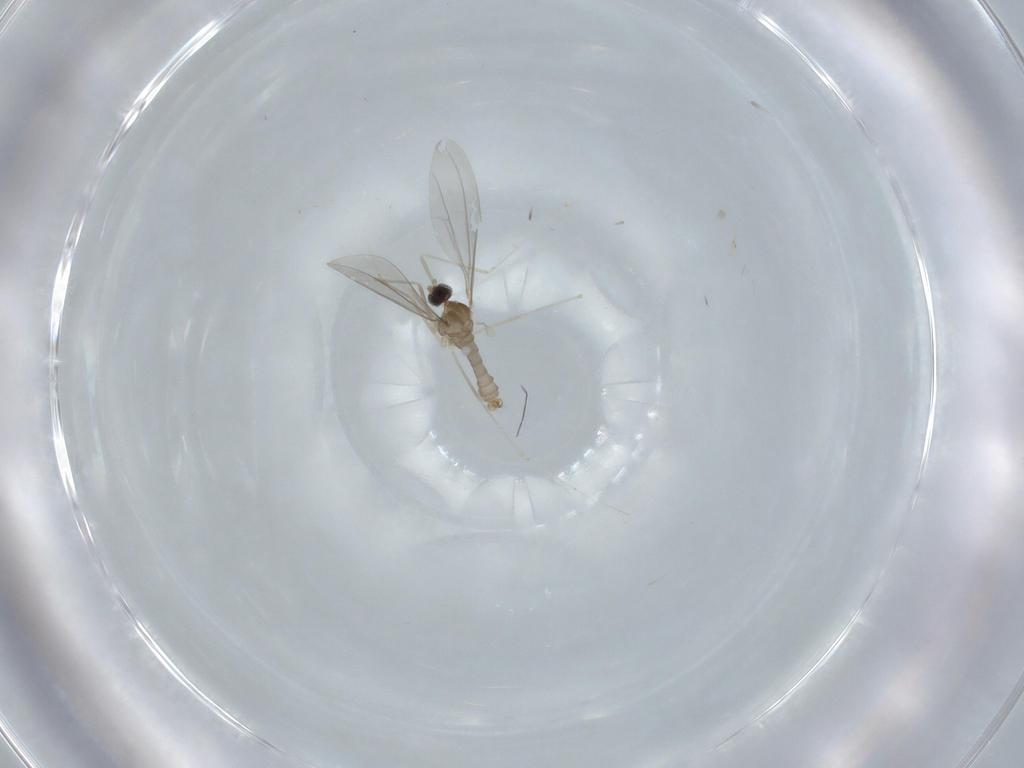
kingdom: Animalia
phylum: Arthropoda
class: Insecta
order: Diptera
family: Cecidomyiidae
